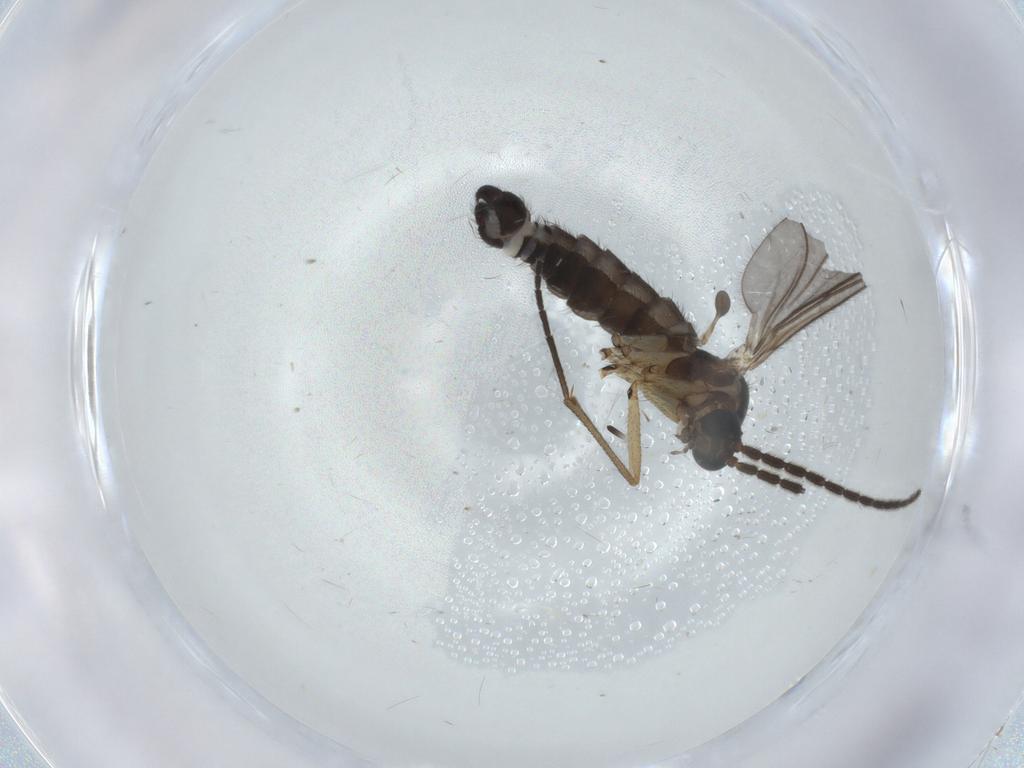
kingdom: Animalia
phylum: Arthropoda
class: Insecta
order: Diptera
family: Sciaridae
